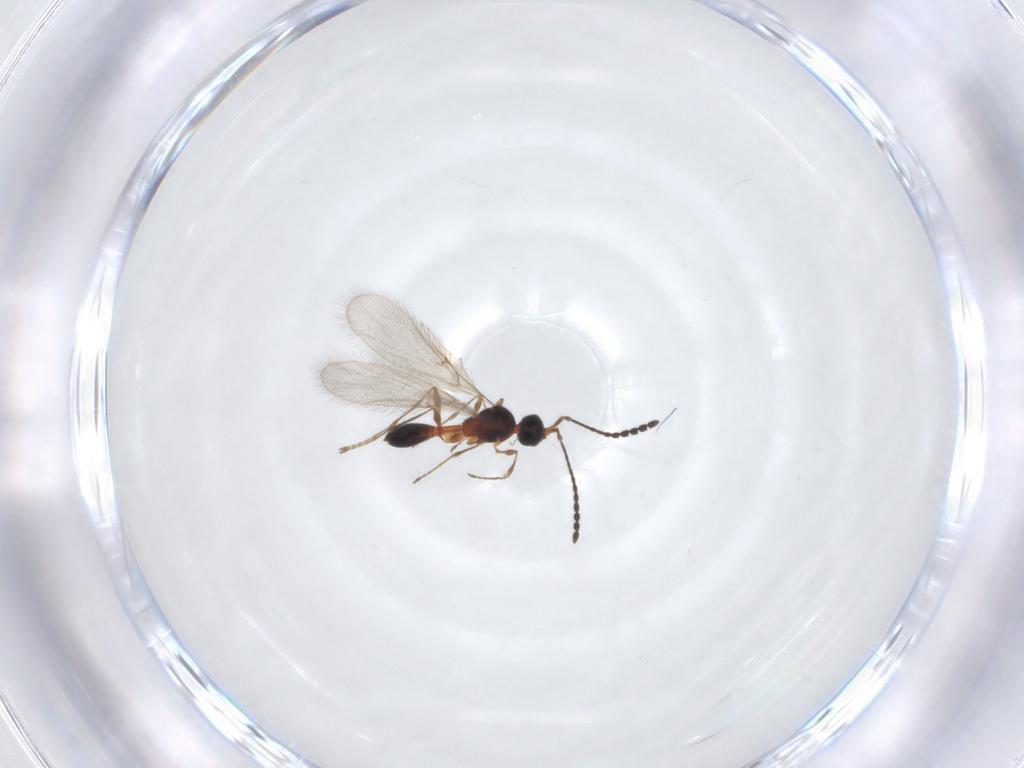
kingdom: Animalia
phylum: Arthropoda
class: Insecta
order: Hymenoptera
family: Diapriidae
